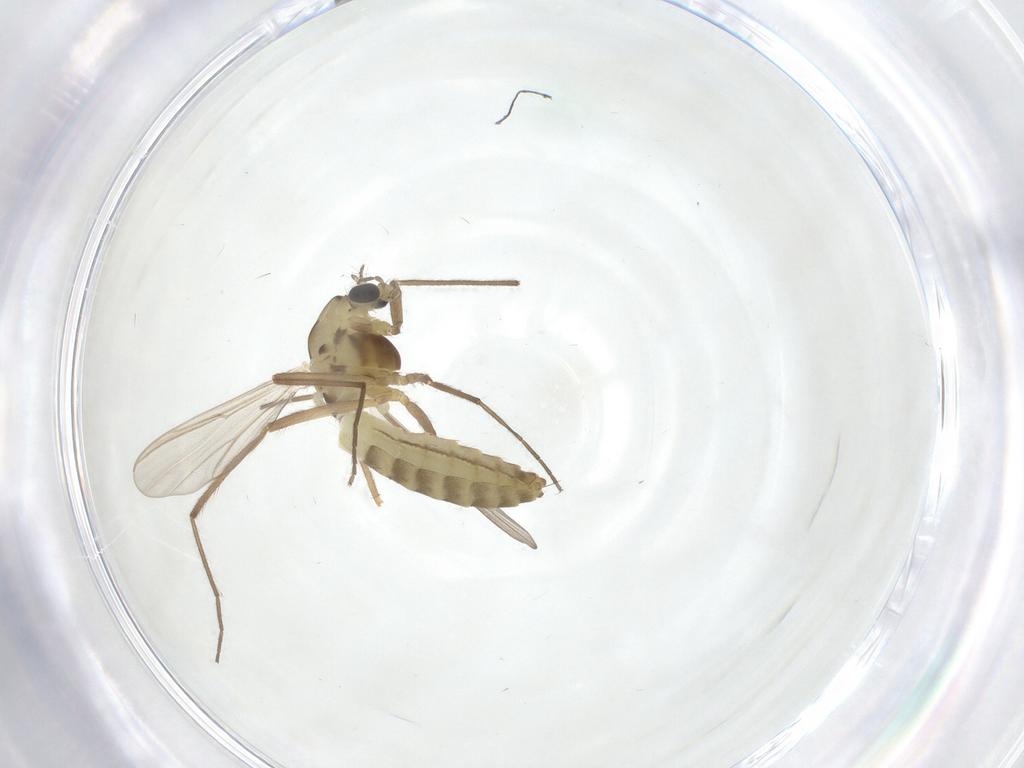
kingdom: Animalia
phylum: Arthropoda
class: Insecta
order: Diptera
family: Chironomidae
